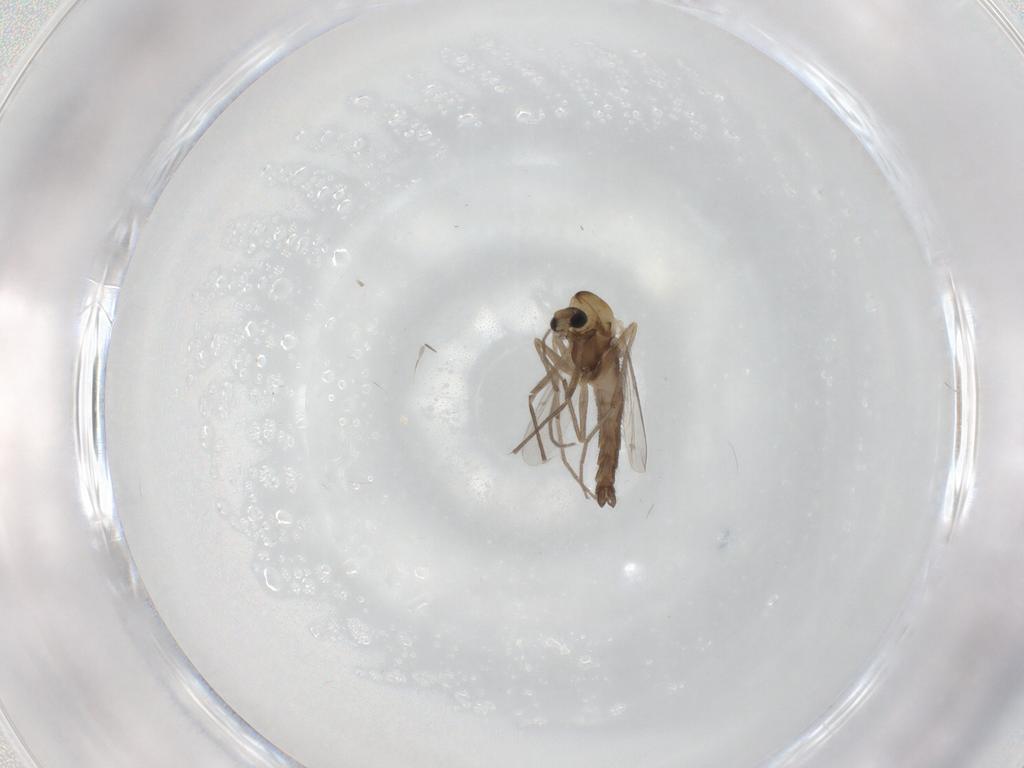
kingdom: Animalia
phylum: Arthropoda
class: Insecta
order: Diptera
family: Chironomidae
